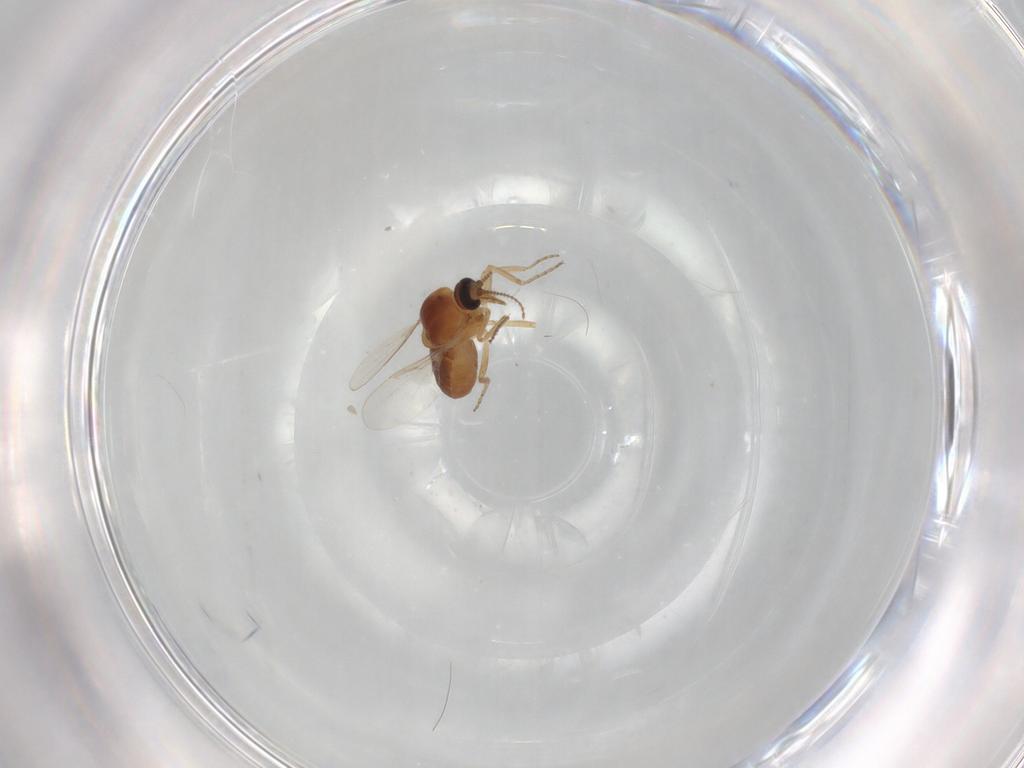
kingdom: Animalia
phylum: Arthropoda
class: Insecta
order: Diptera
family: Ceratopogonidae
